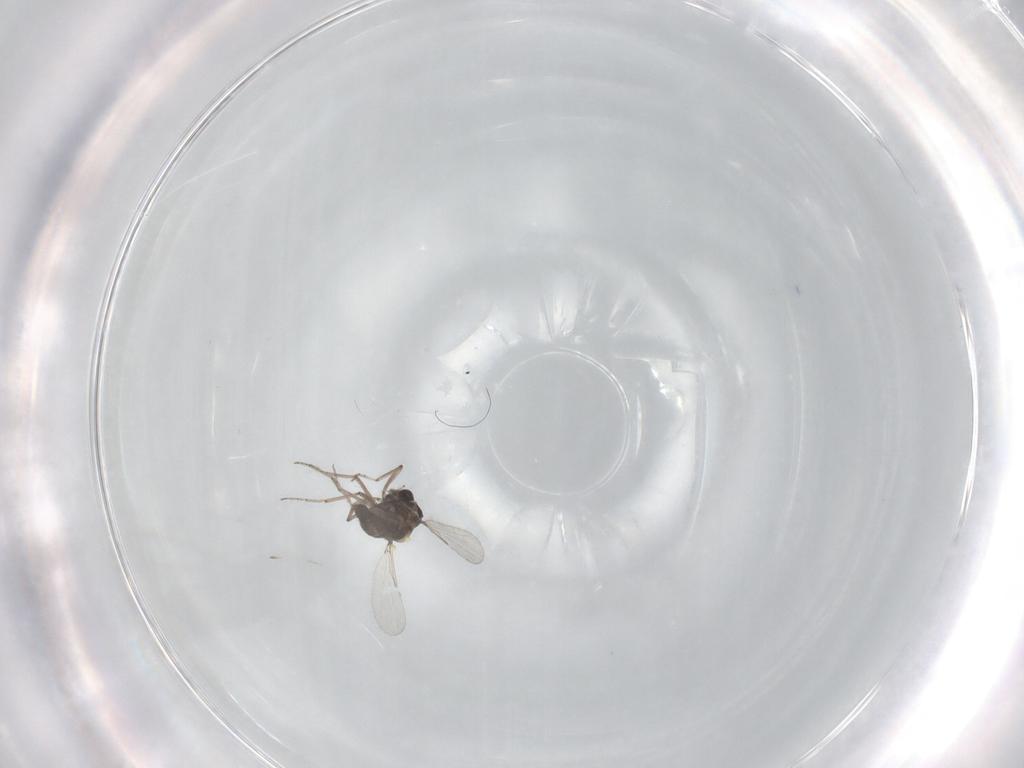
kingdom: Animalia
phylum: Arthropoda
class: Insecta
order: Diptera
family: Ceratopogonidae
